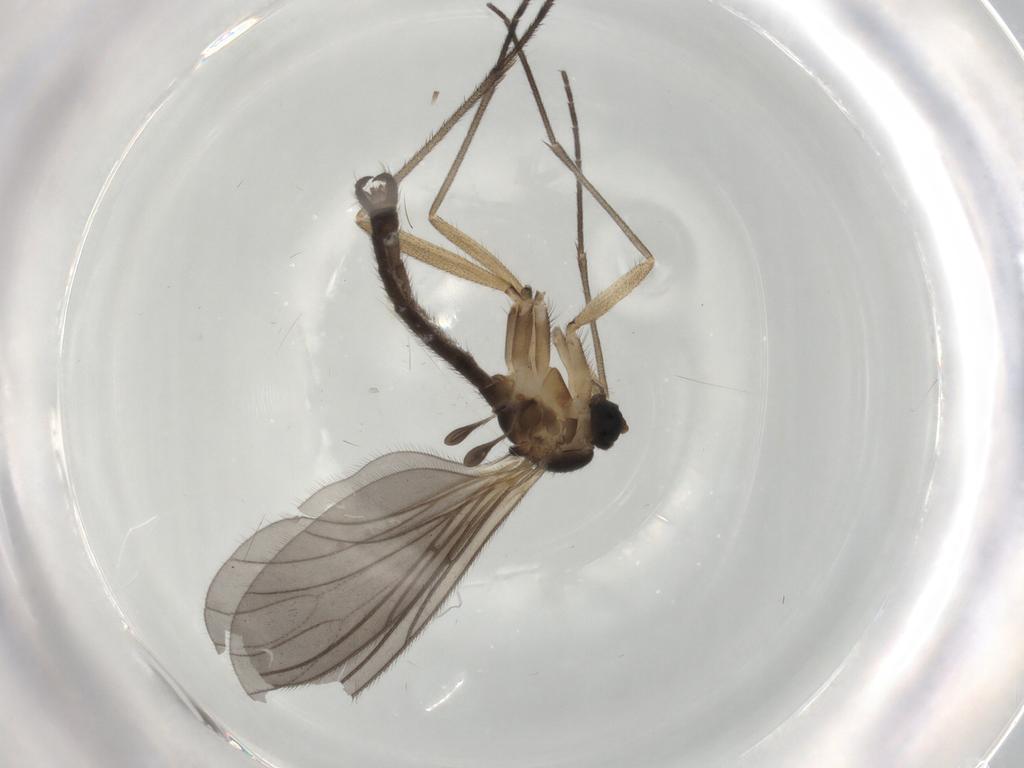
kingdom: Animalia
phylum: Arthropoda
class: Insecta
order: Diptera
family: Sciaridae
